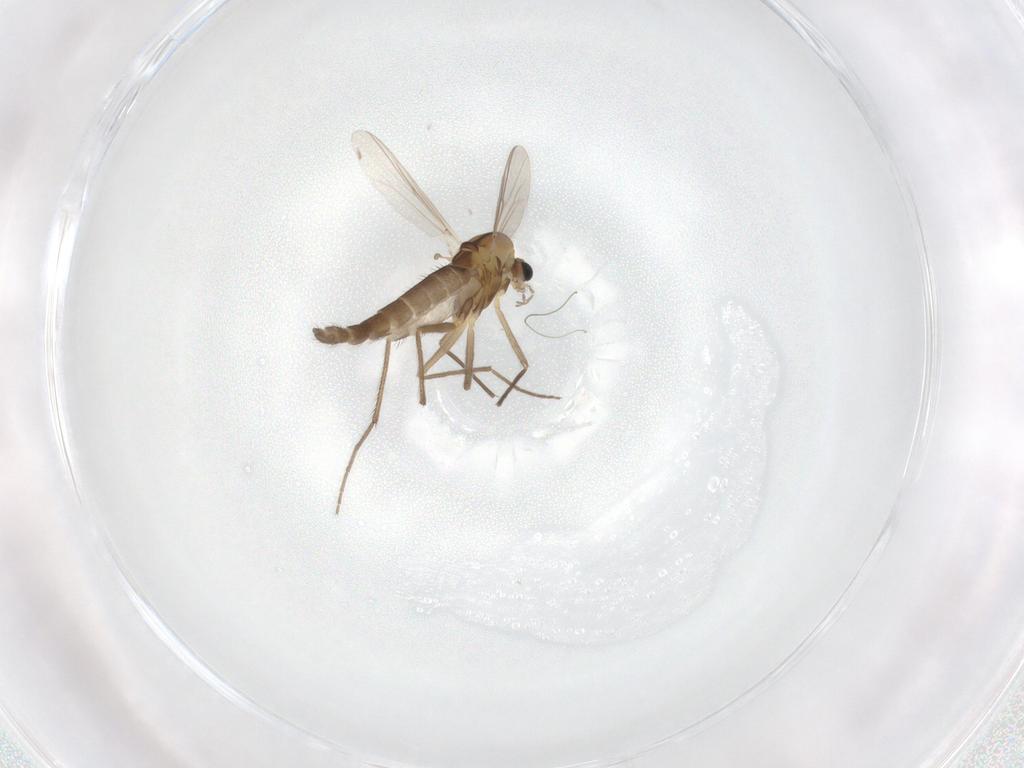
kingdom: Animalia
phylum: Arthropoda
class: Insecta
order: Diptera
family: Chironomidae
